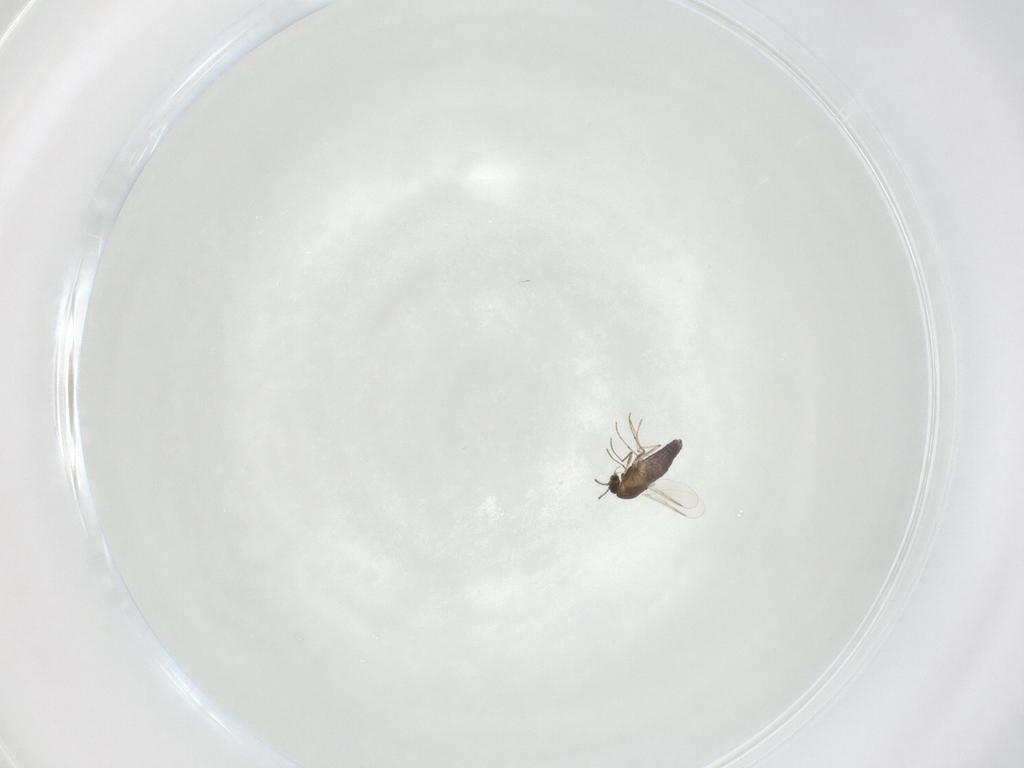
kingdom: Animalia
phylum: Arthropoda
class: Insecta
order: Diptera
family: Chironomidae
